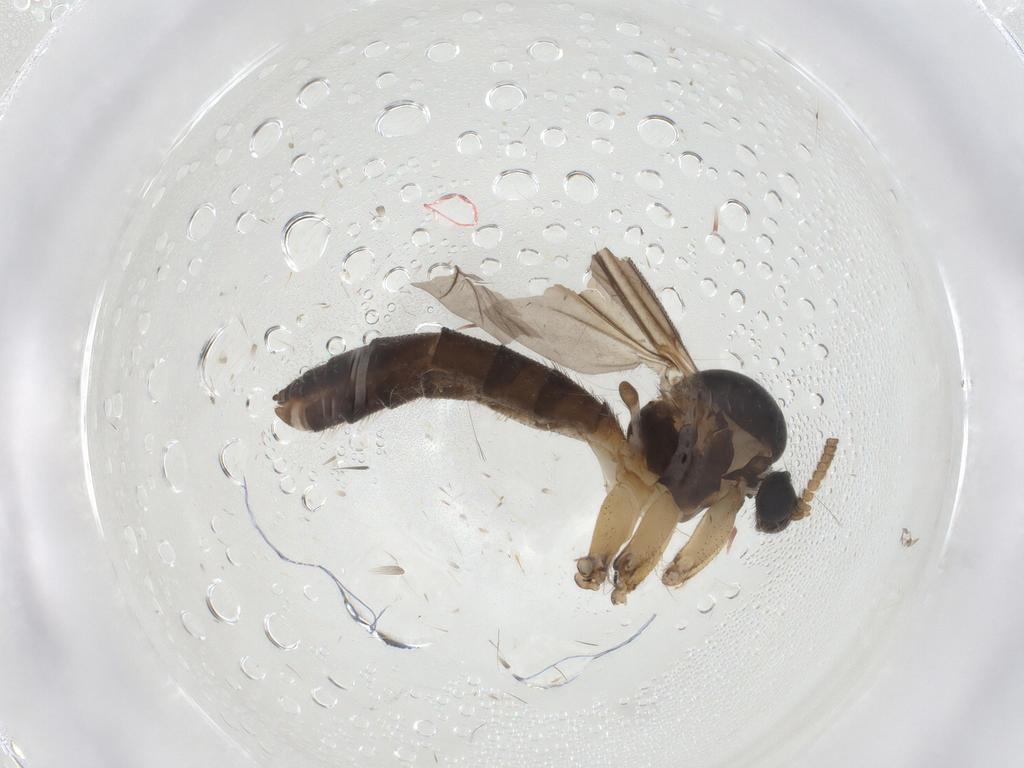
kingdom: Animalia
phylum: Arthropoda
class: Insecta
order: Diptera
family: Mycetophilidae
